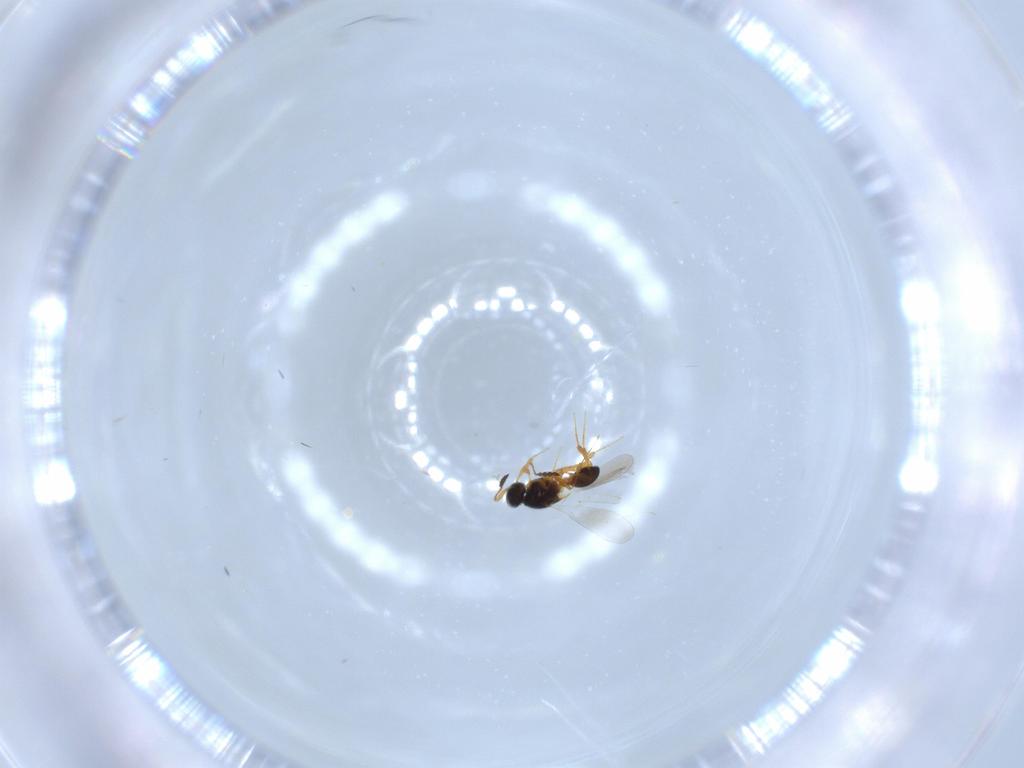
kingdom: Animalia
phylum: Arthropoda
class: Insecta
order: Hymenoptera
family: Platygastridae
